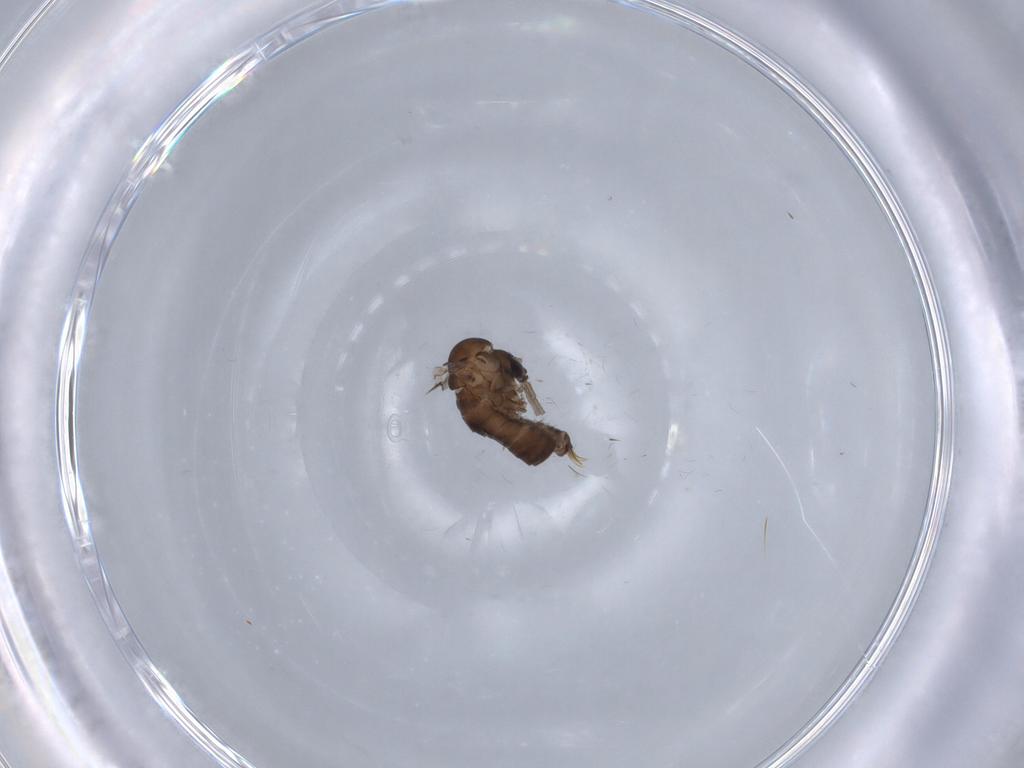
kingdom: Animalia
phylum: Arthropoda
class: Insecta
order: Diptera
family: Psychodidae
